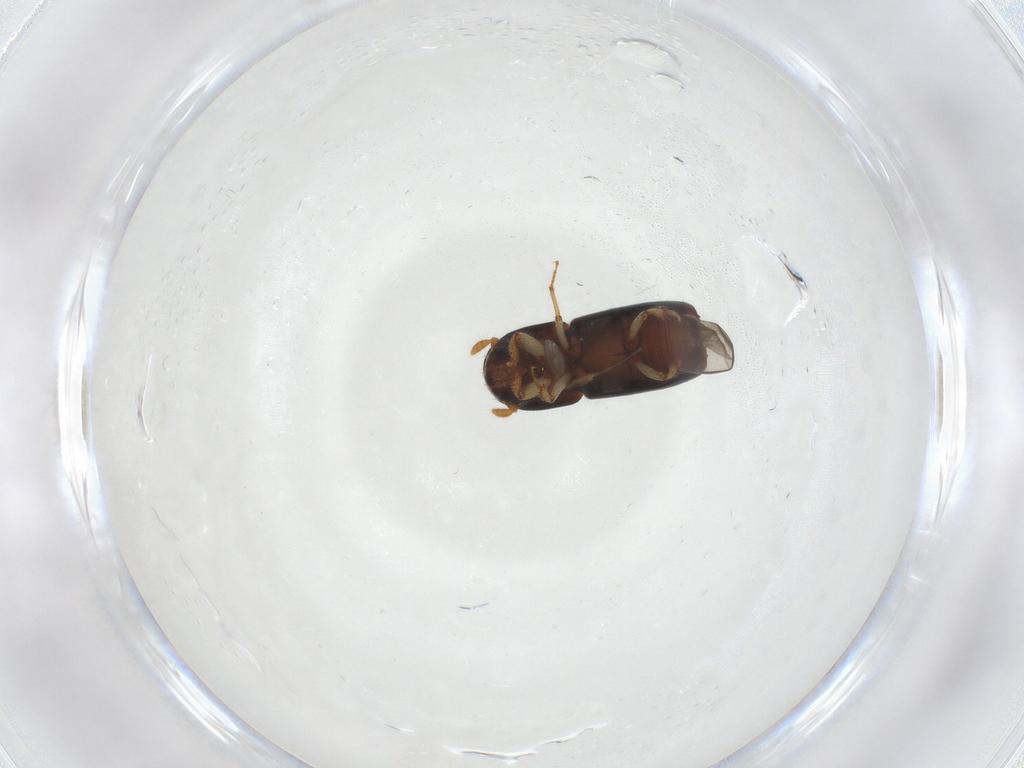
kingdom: Animalia
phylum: Arthropoda
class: Insecta
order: Coleoptera
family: Curculionidae
